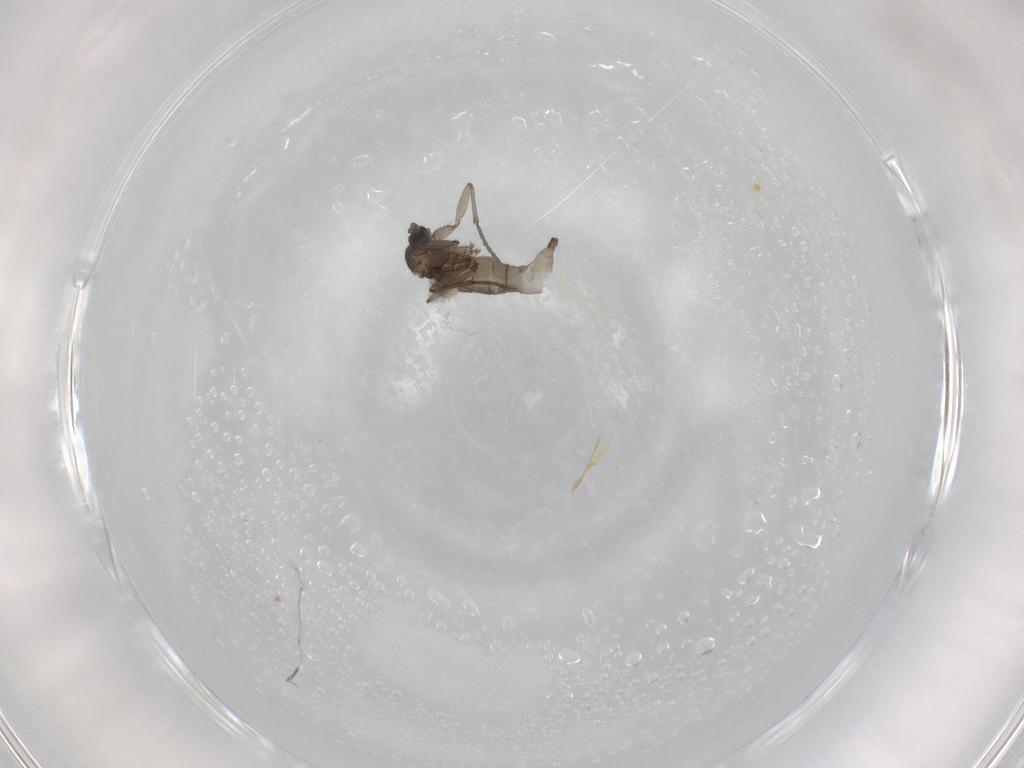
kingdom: Animalia
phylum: Arthropoda
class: Insecta
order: Diptera
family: Sciaridae
